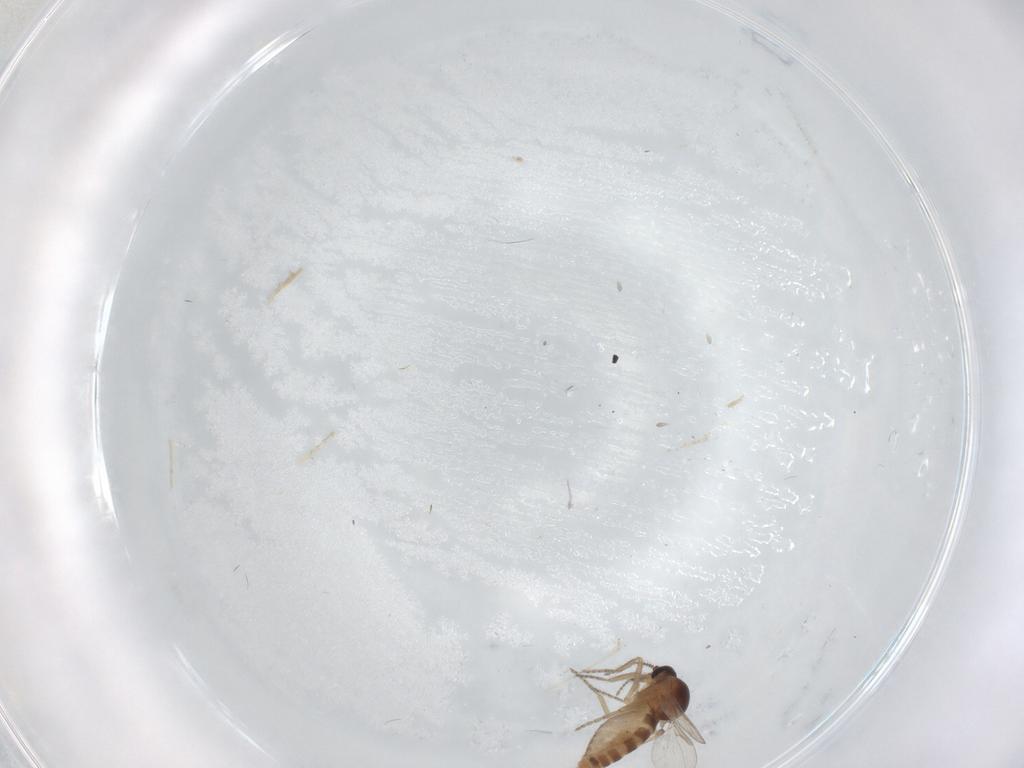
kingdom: Animalia
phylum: Arthropoda
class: Insecta
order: Diptera
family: Ceratopogonidae
